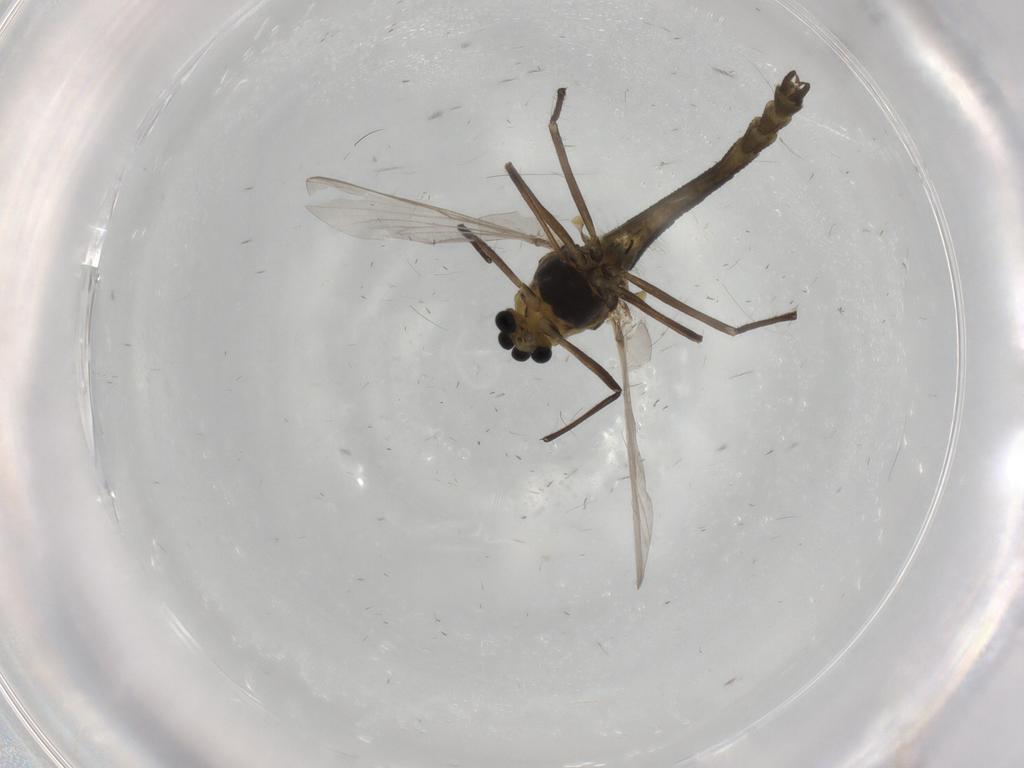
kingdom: Animalia
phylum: Arthropoda
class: Insecta
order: Diptera
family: Culicidae
